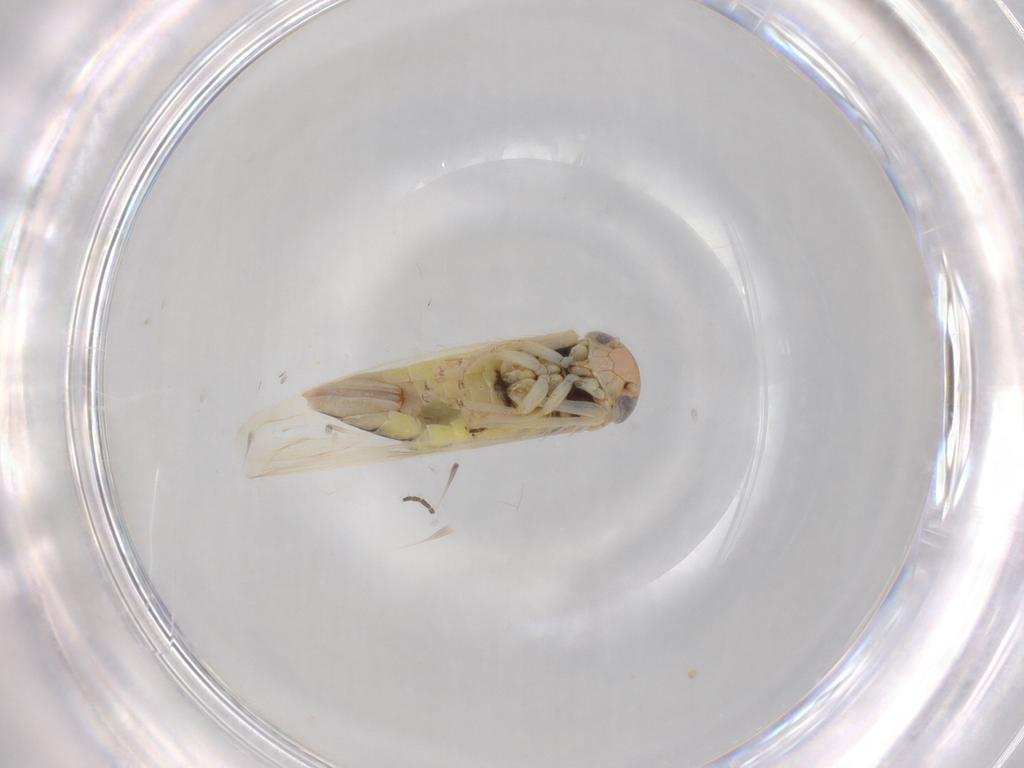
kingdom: Animalia
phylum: Arthropoda
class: Insecta
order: Hemiptera
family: Cicadellidae
